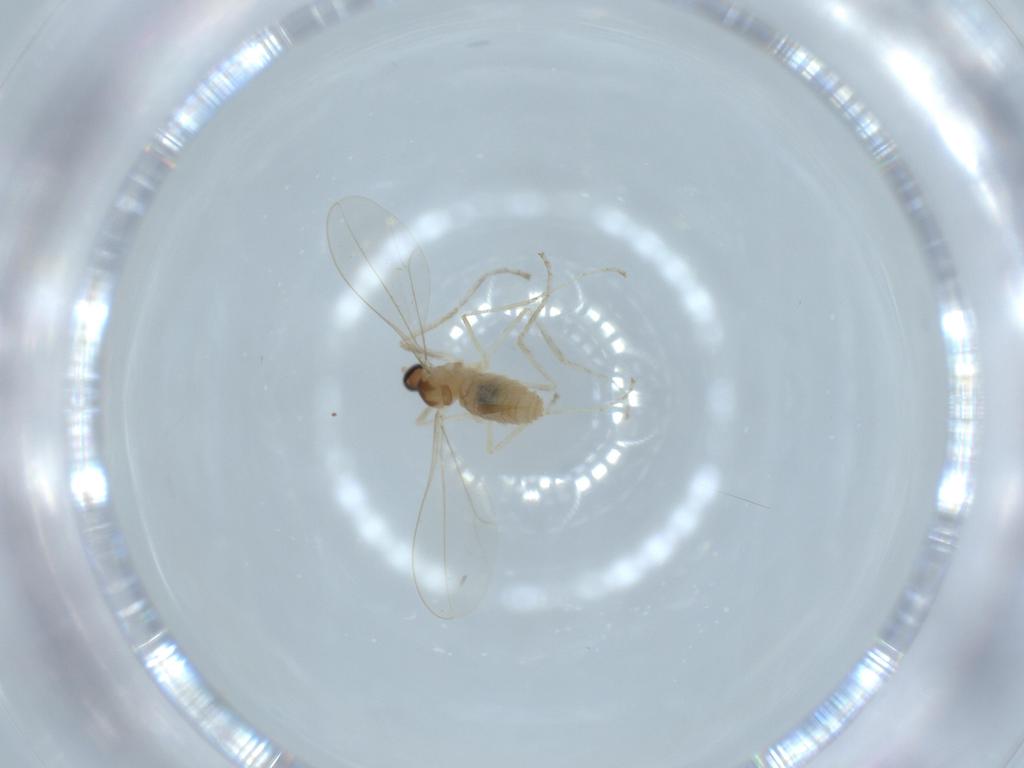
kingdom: Animalia
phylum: Arthropoda
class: Insecta
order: Diptera
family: Cecidomyiidae
